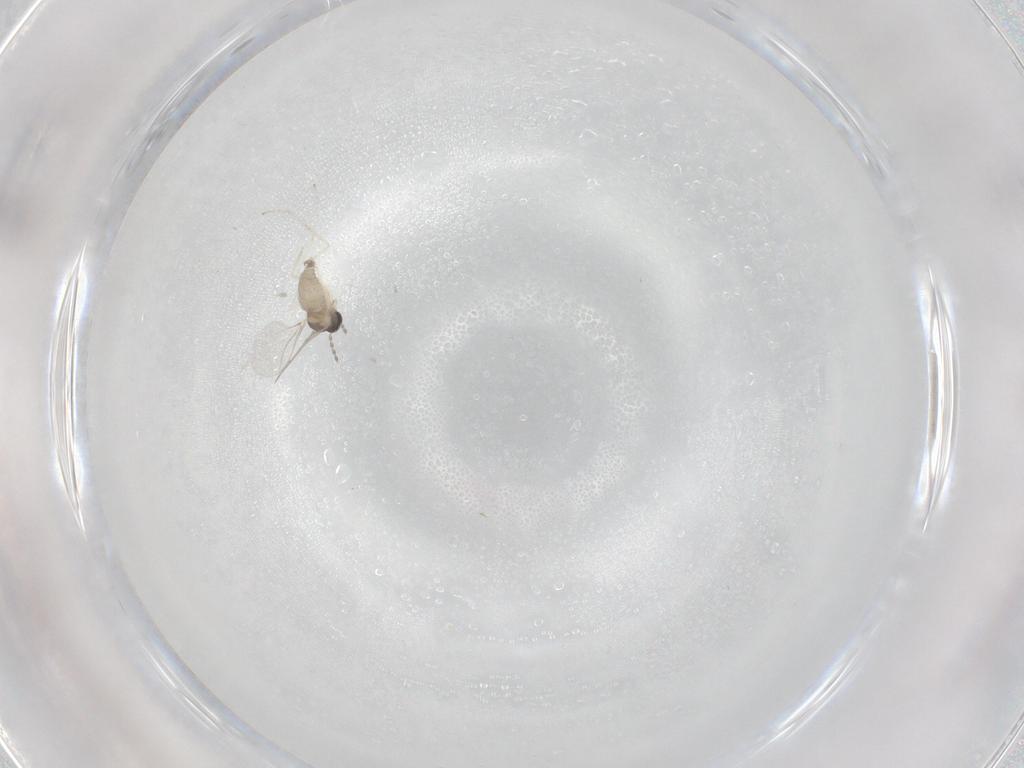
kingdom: Animalia
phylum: Arthropoda
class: Insecta
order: Diptera
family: Cecidomyiidae
